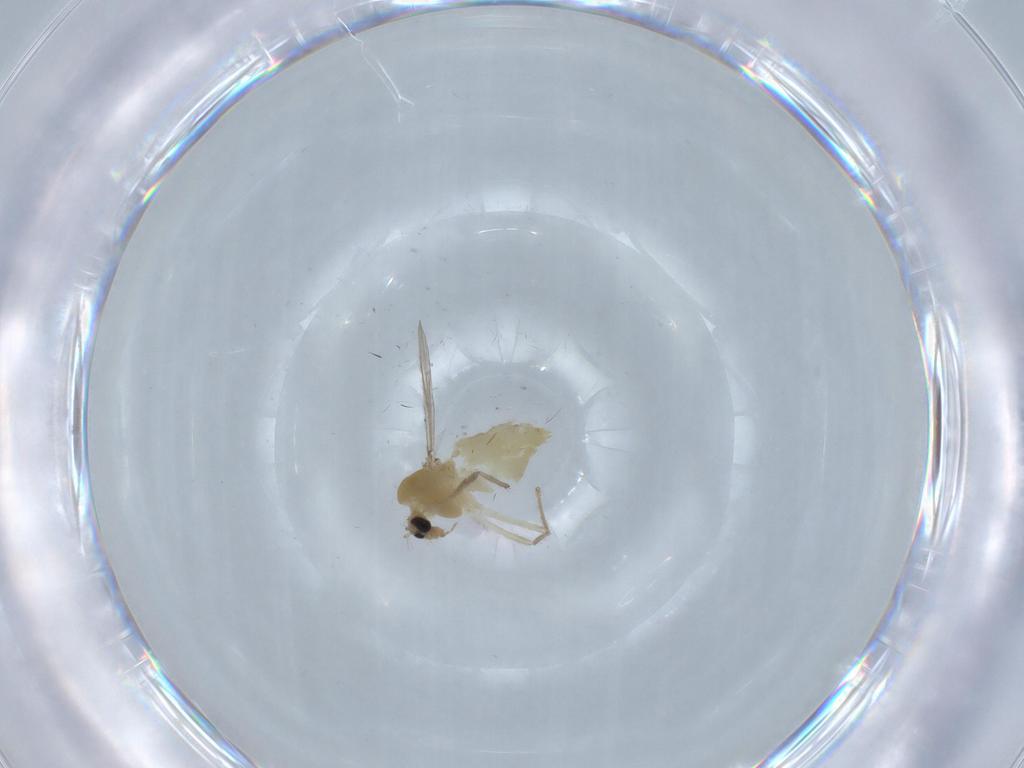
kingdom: Animalia
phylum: Arthropoda
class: Insecta
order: Diptera
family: Chironomidae
